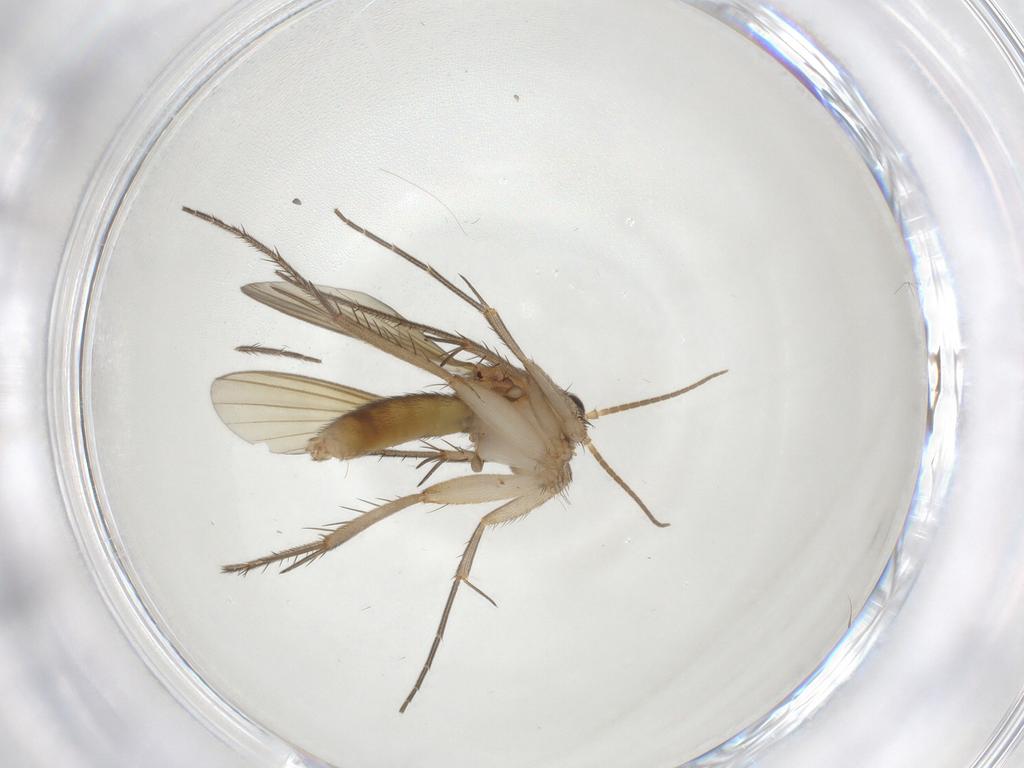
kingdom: Animalia
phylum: Arthropoda
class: Insecta
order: Diptera
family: Mycetophilidae
